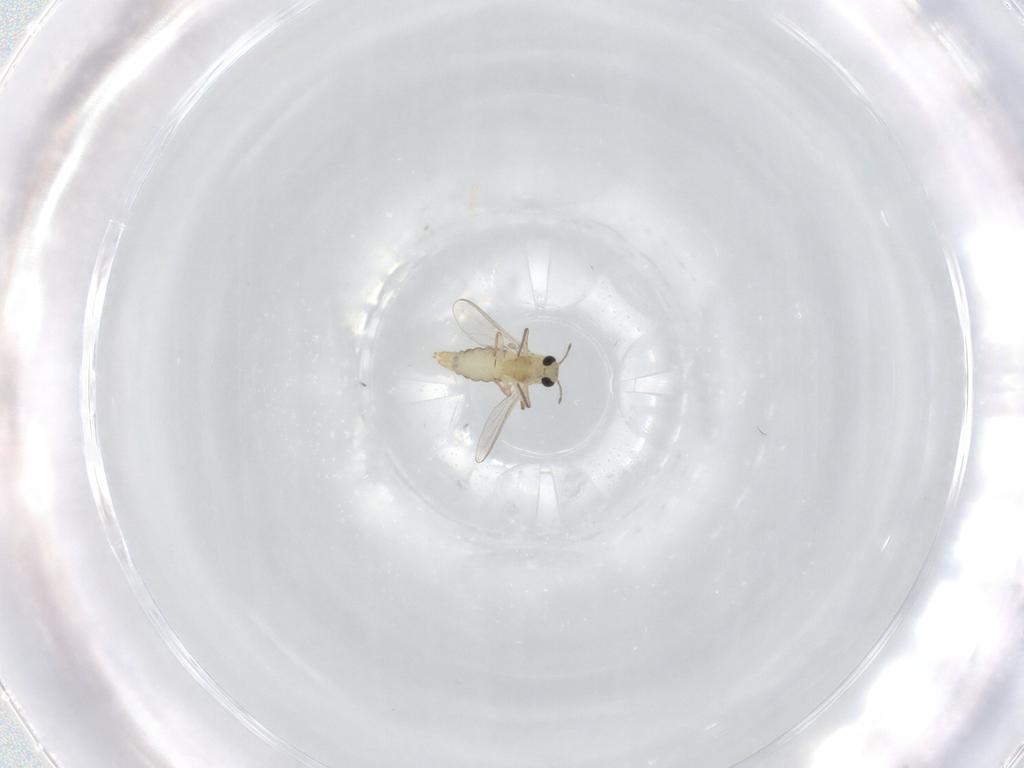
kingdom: Animalia
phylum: Arthropoda
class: Insecta
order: Diptera
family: Chironomidae
